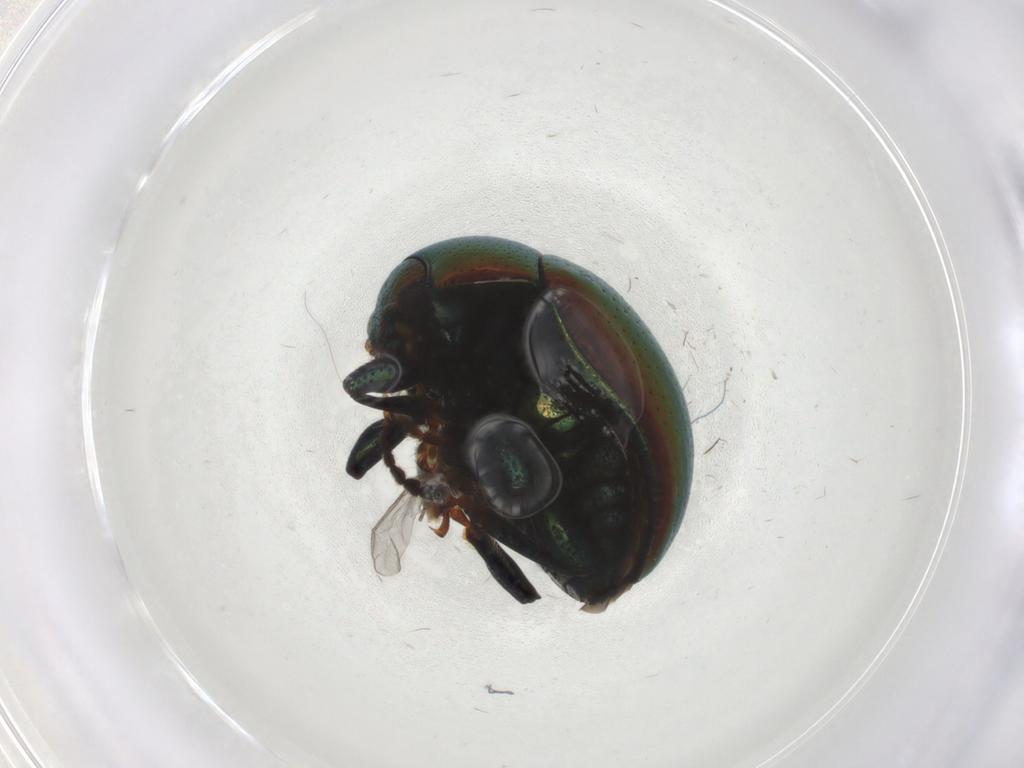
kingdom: Animalia
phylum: Arthropoda
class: Insecta
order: Coleoptera
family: Chrysomelidae
